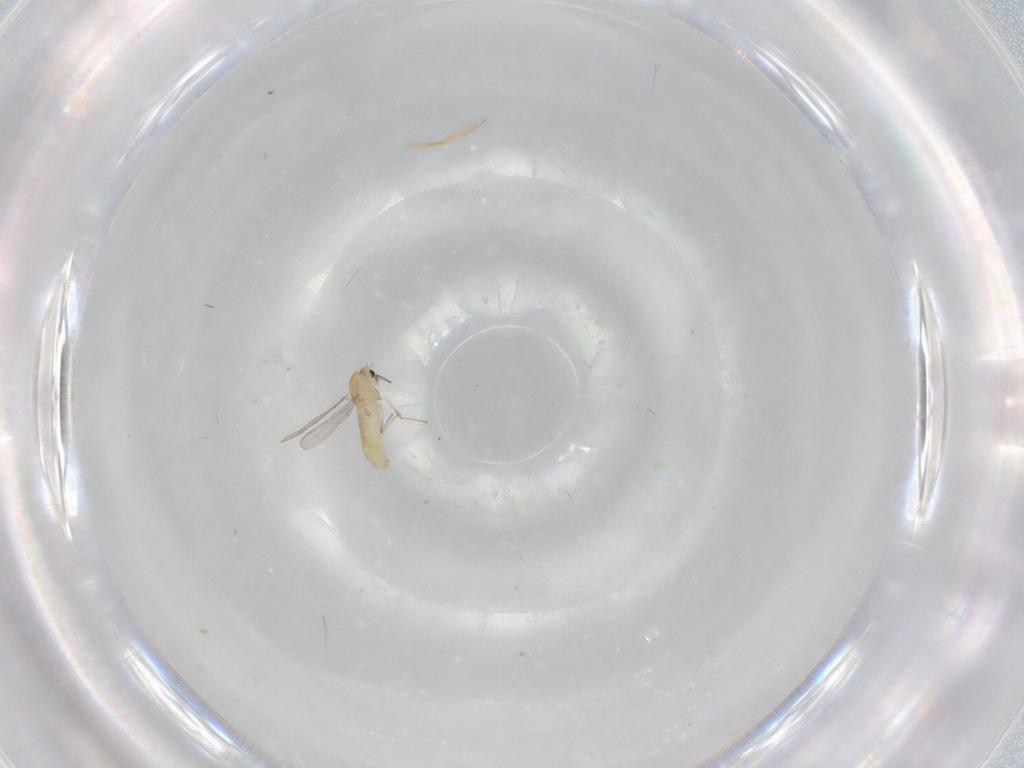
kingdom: Animalia
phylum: Arthropoda
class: Insecta
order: Diptera
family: Chironomidae
